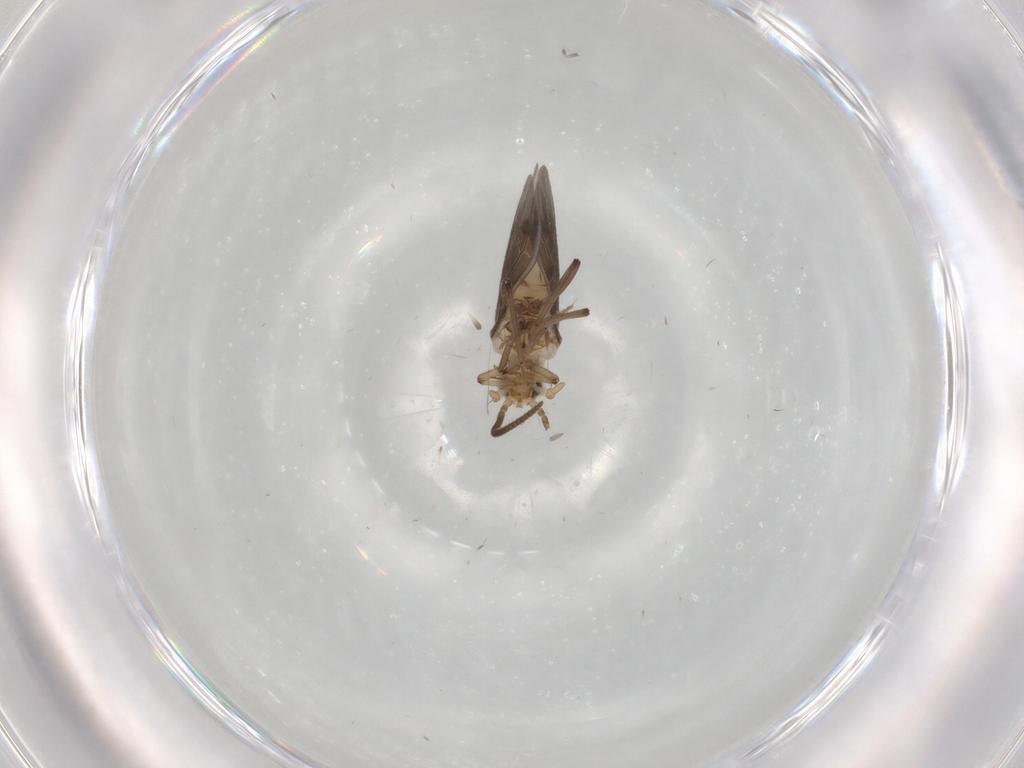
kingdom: Animalia
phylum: Arthropoda
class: Insecta
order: Neuroptera
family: Coniopterygidae
